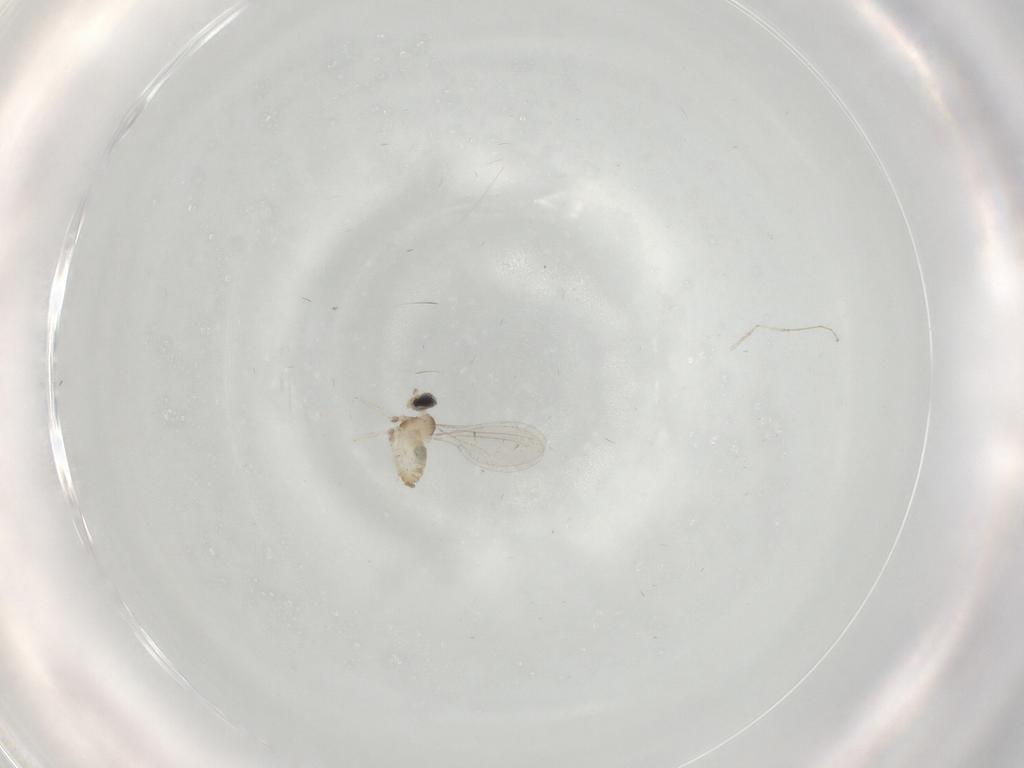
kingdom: Animalia
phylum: Arthropoda
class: Insecta
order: Diptera
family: Cecidomyiidae
